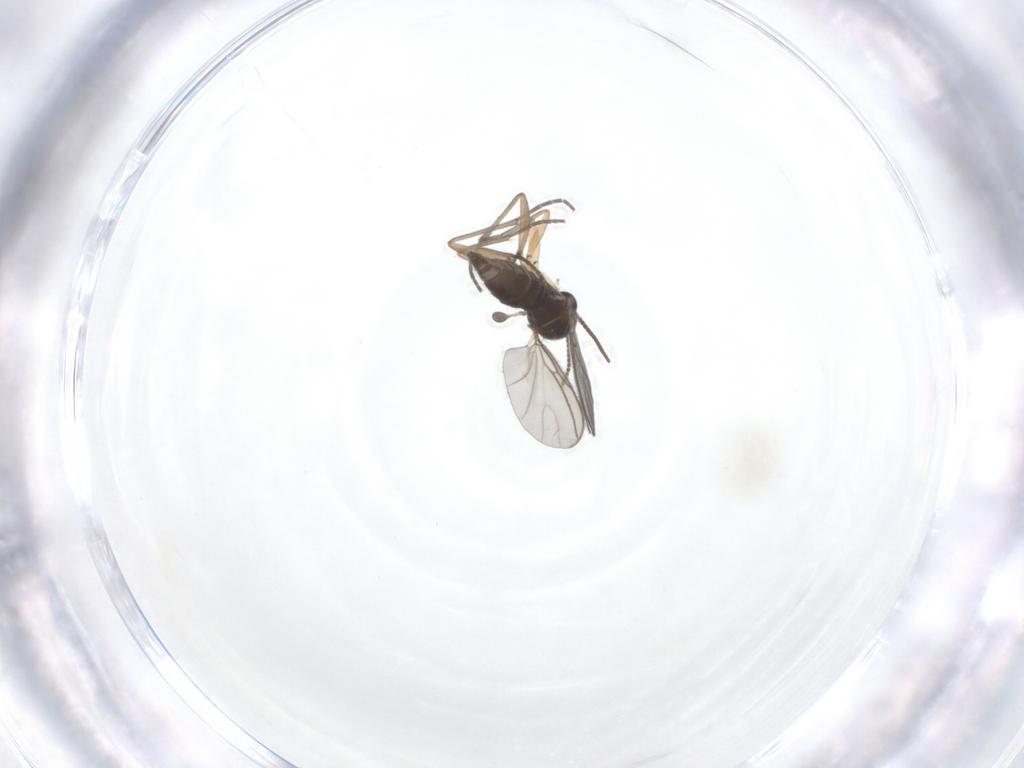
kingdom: Animalia
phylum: Arthropoda
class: Insecta
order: Diptera
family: Sciaridae
